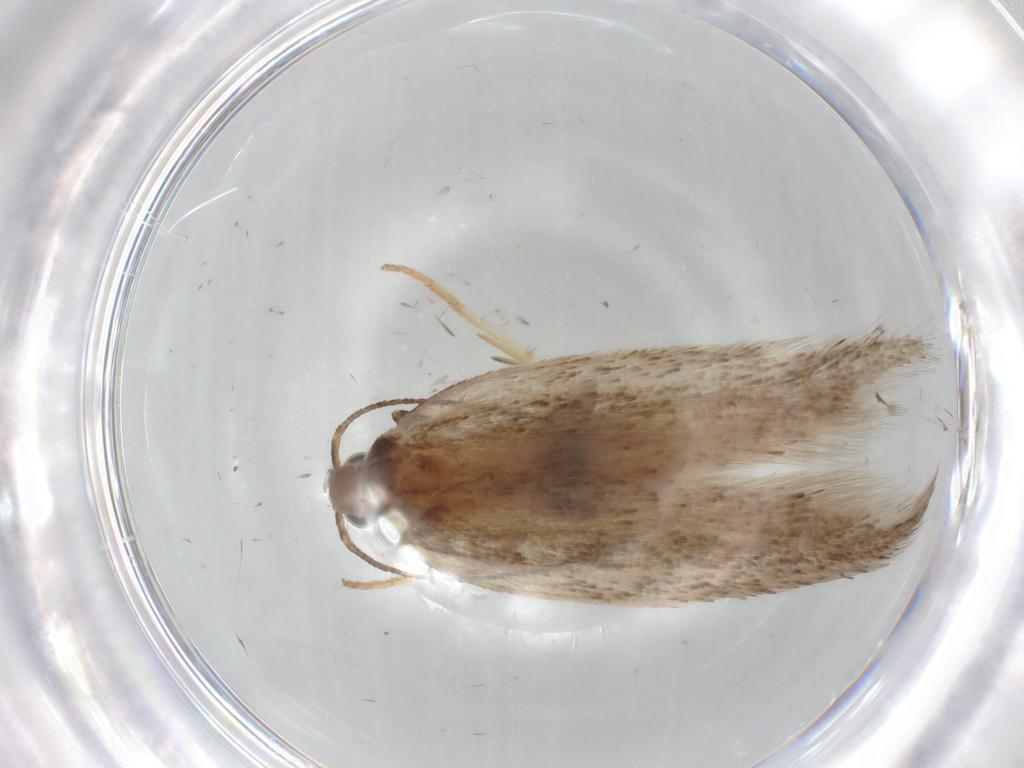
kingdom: Animalia
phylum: Arthropoda
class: Insecta
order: Lepidoptera
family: Gelechiidae
